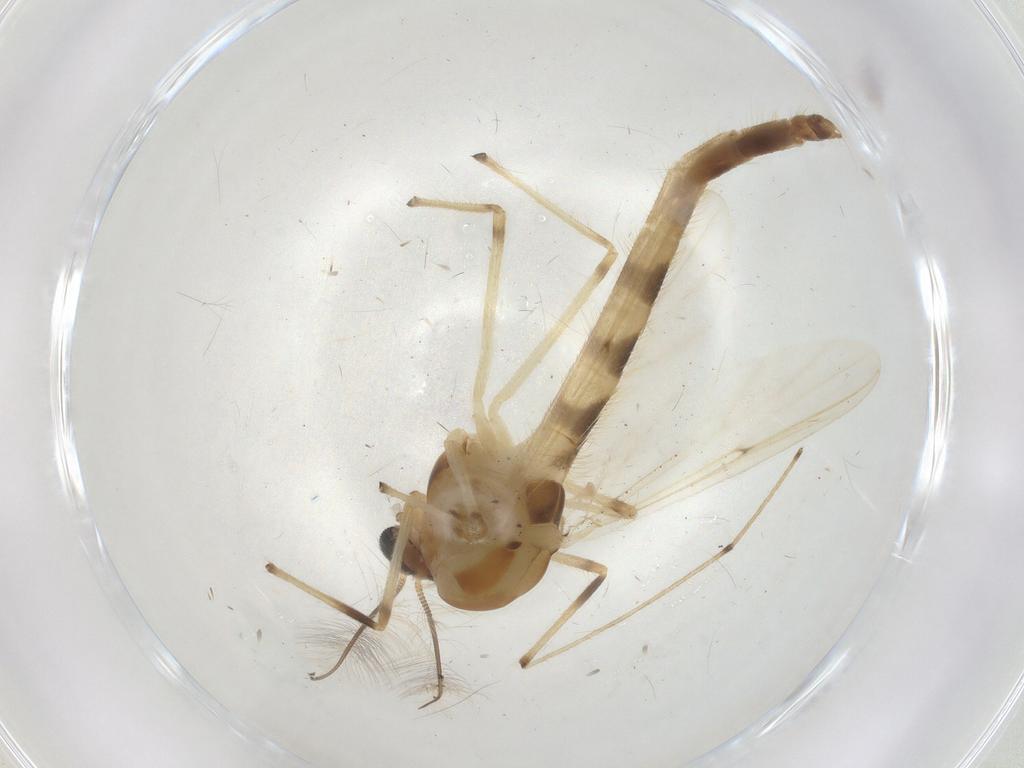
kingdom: Animalia
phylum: Arthropoda
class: Insecta
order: Diptera
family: Chironomidae
